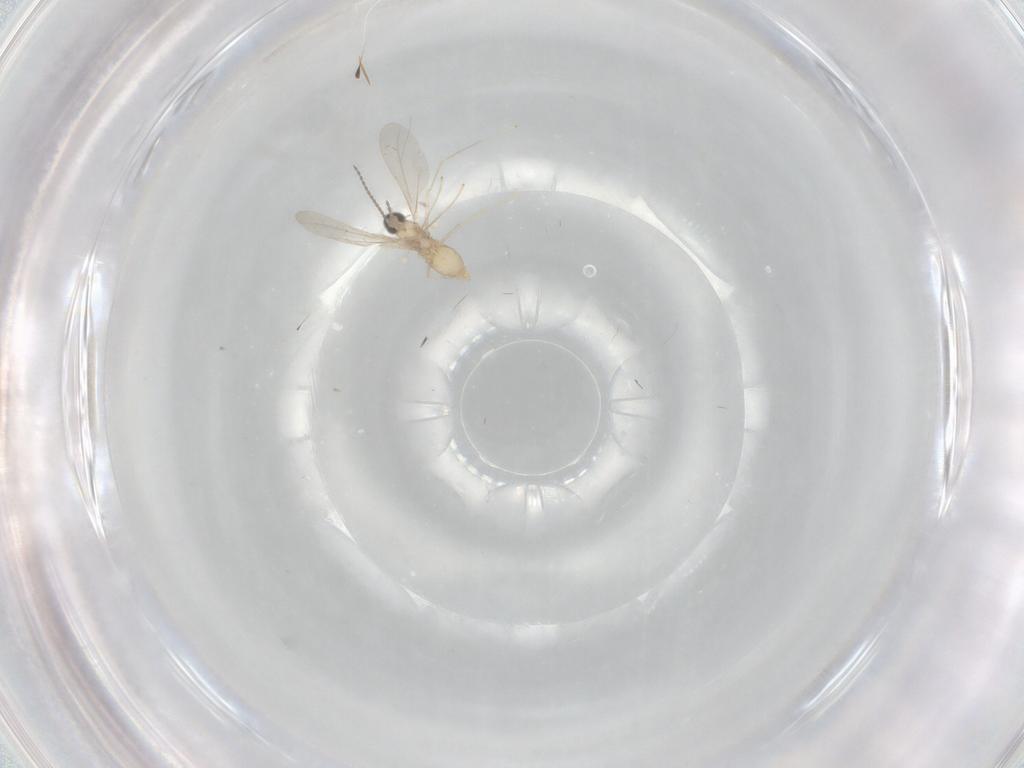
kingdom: Animalia
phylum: Arthropoda
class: Insecta
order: Diptera
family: Cecidomyiidae
